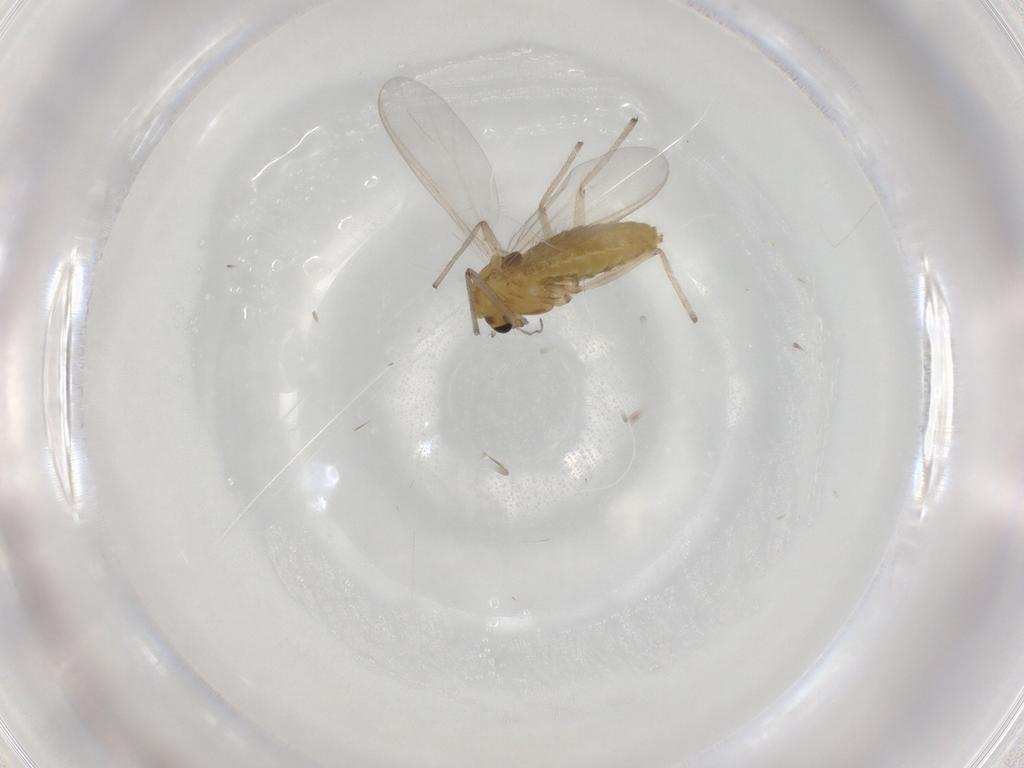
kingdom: Animalia
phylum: Arthropoda
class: Insecta
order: Diptera
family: Chironomidae
